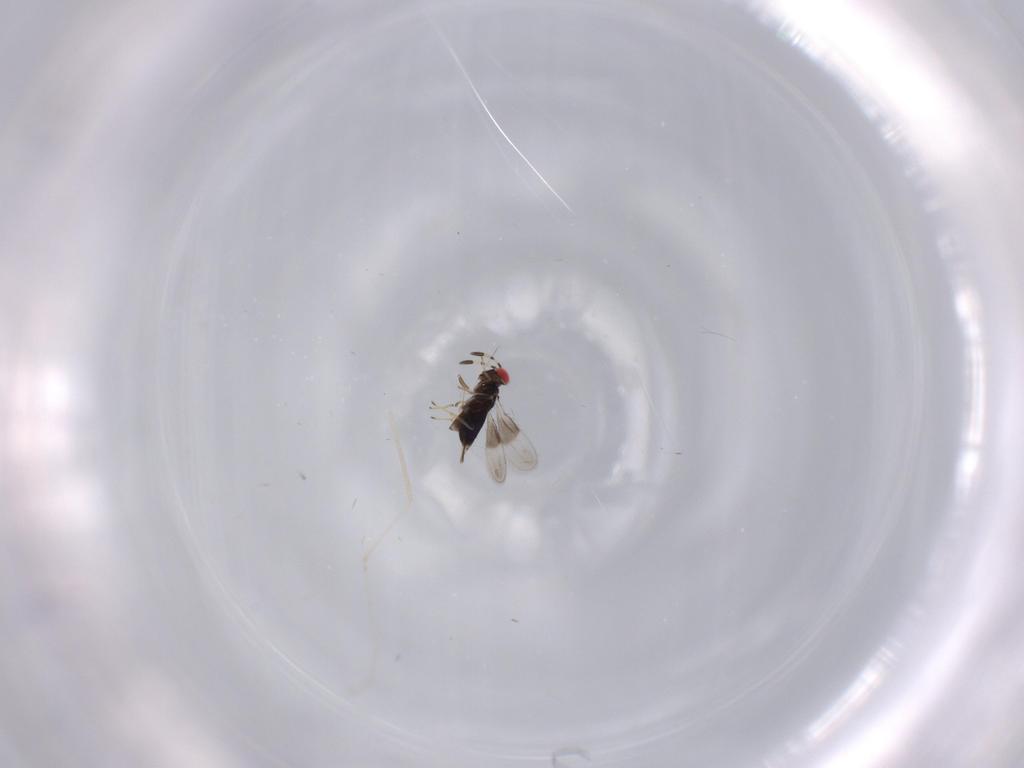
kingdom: Animalia
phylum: Arthropoda
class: Insecta
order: Hymenoptera
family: Azotidae
